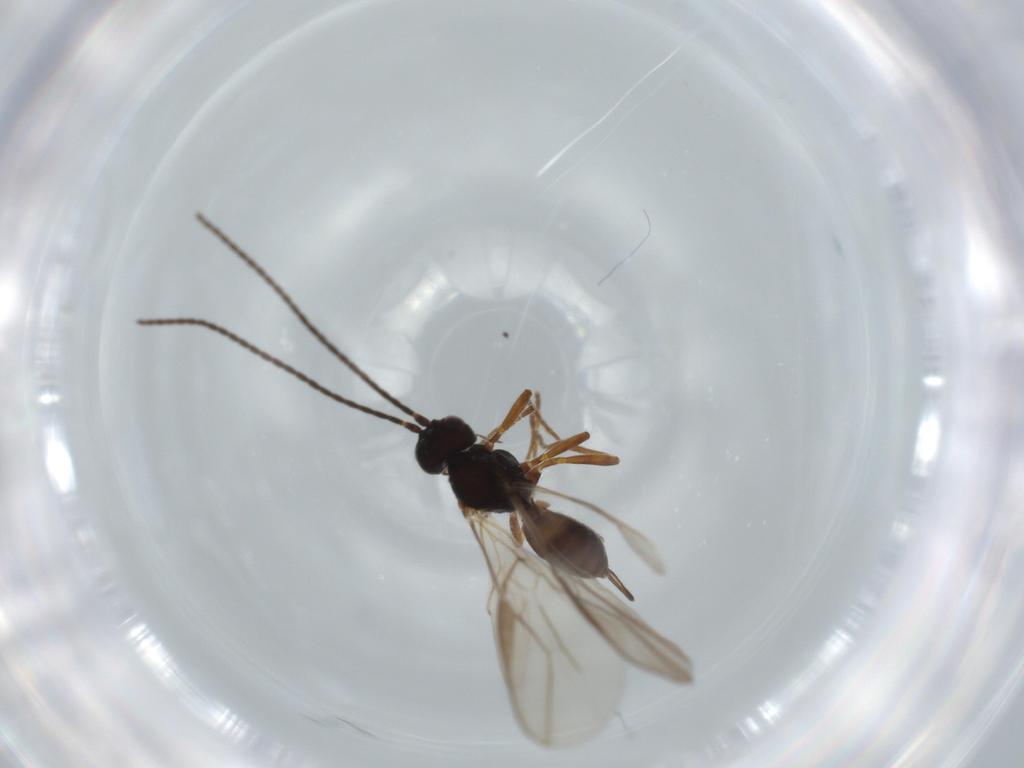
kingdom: Animalia
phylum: Arthropoda
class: Insecta
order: Hymenoptera
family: Braconidae
